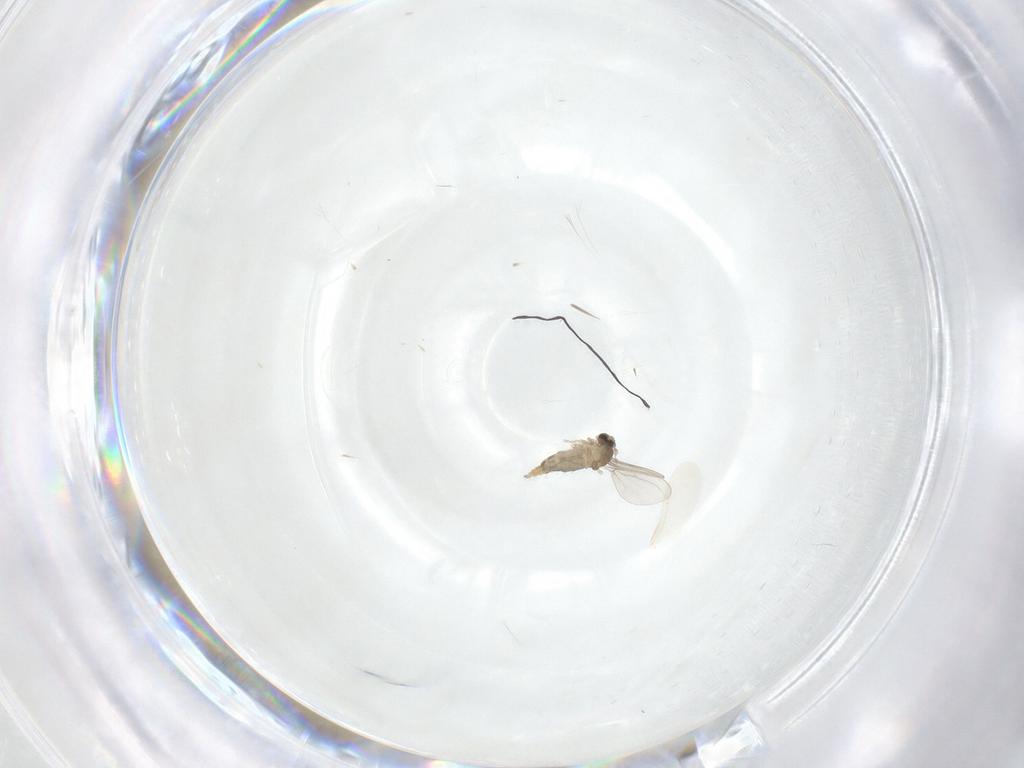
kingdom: Animalia
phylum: Arthropoda
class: Insecta
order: Diptera
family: Cecidomyiidae
